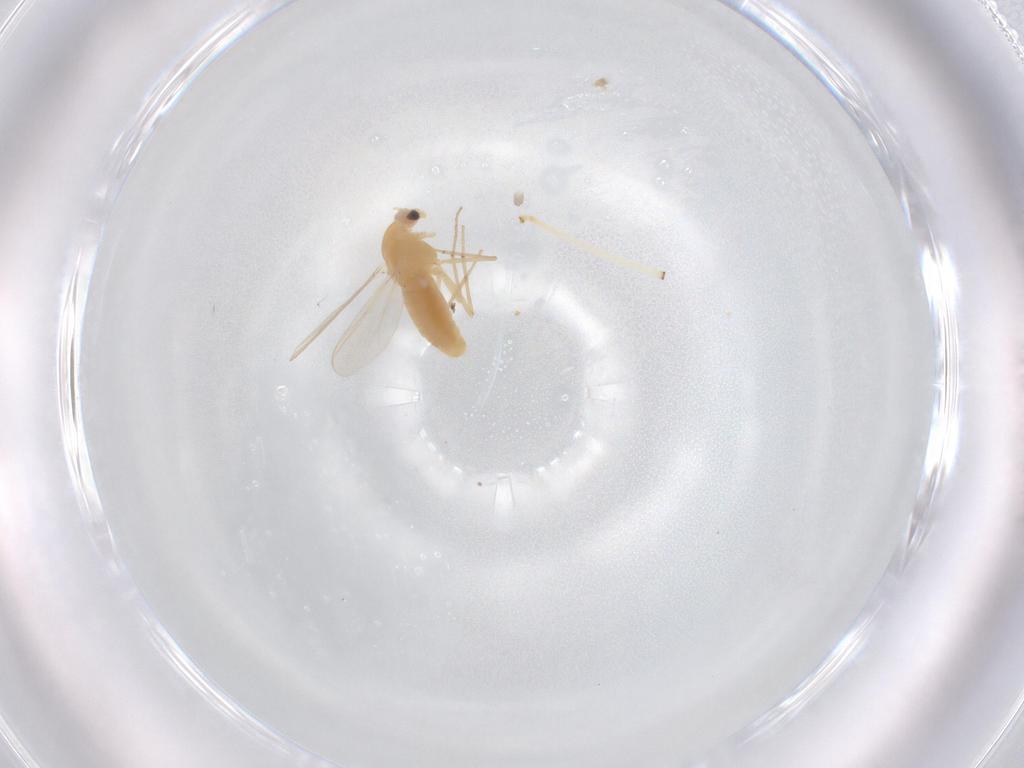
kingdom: Animalia
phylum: Arthropoda
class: Insecta
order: Diptera
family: Chironomidae
